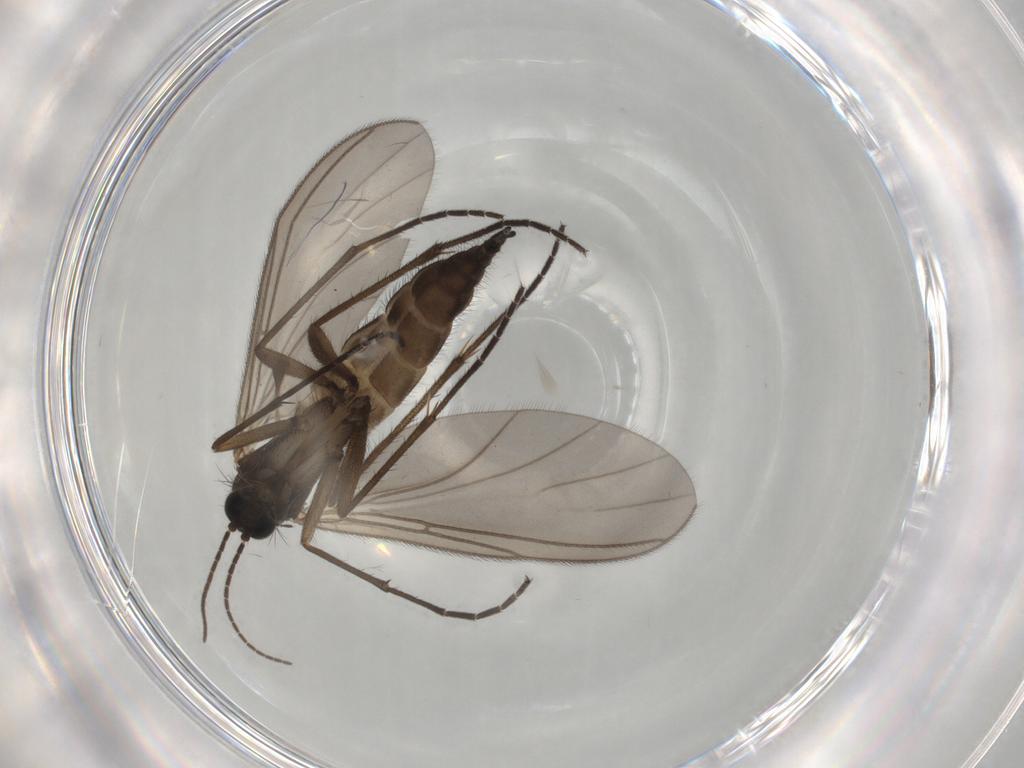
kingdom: Animalia
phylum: Arthropoda
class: Insecta
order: Diptera
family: Sciaridae
